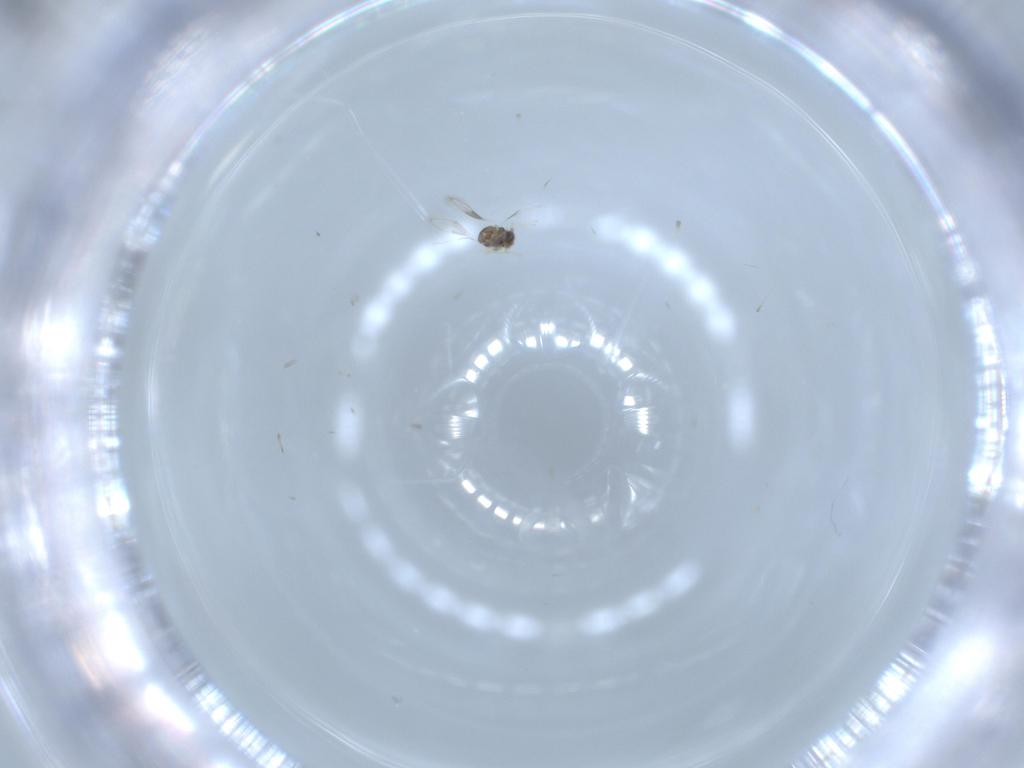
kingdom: Animalia
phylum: Arthropoda
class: Insecta
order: Hymenoptera
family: Aphelinidae
